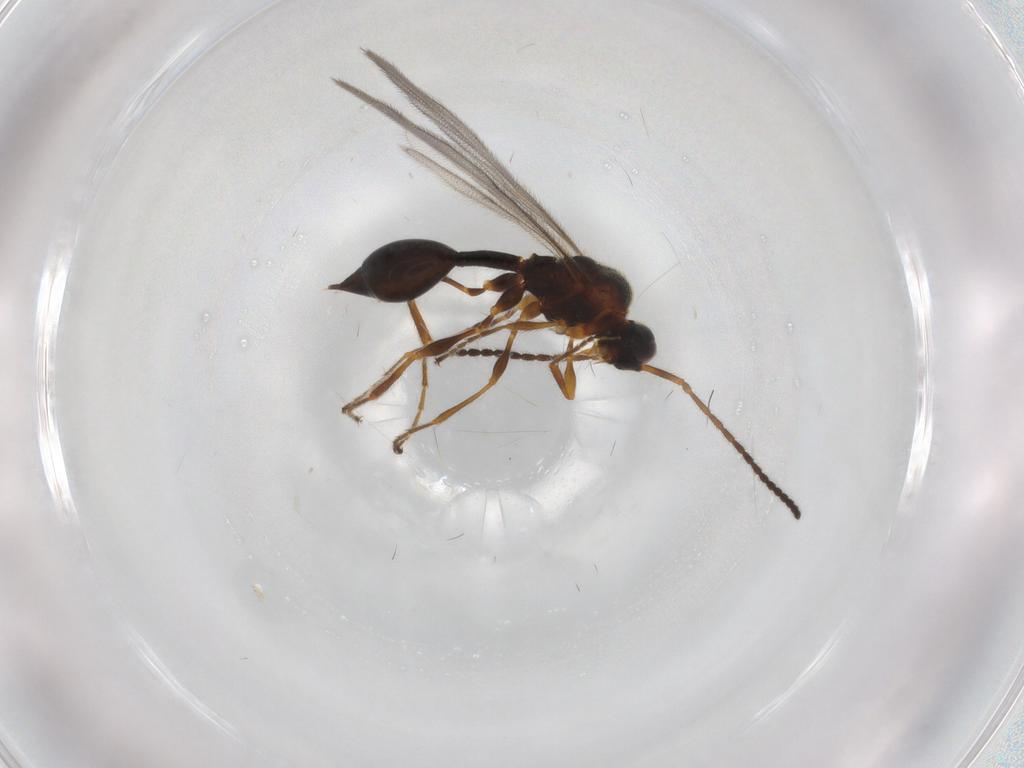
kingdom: Animalia
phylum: Arthropoda
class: Insecta
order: Hymenoptera
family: Diapriidae
